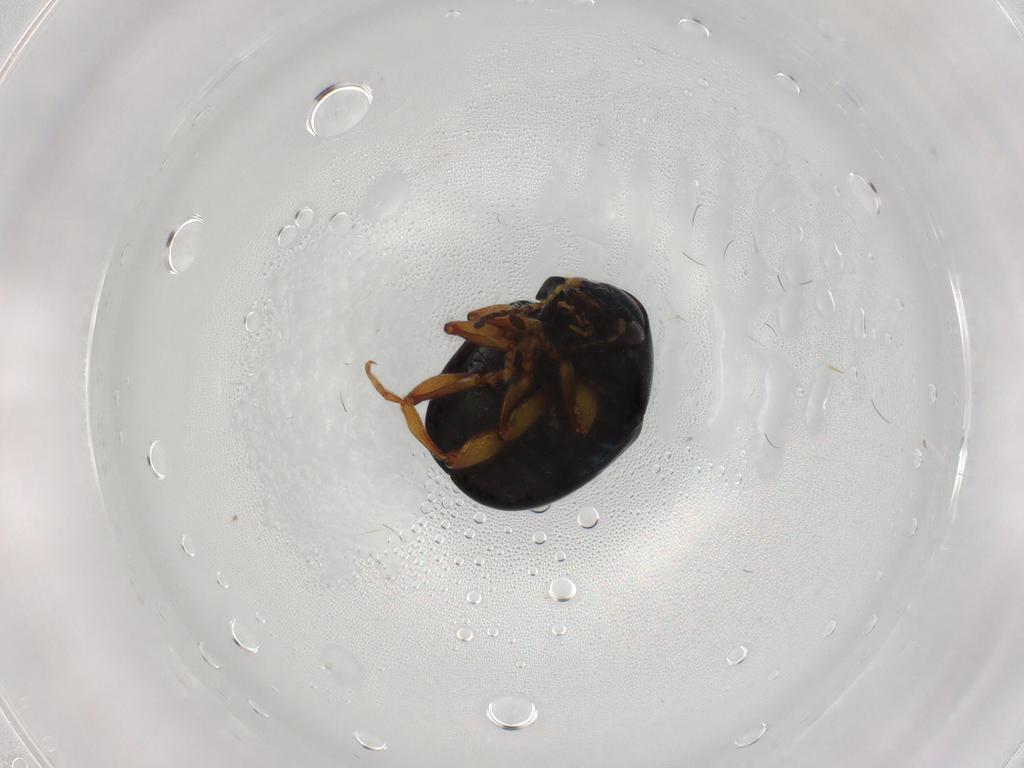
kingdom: Animalia
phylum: Arthropoda
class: Insecta
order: Coleoptera
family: Chrysomelidae
